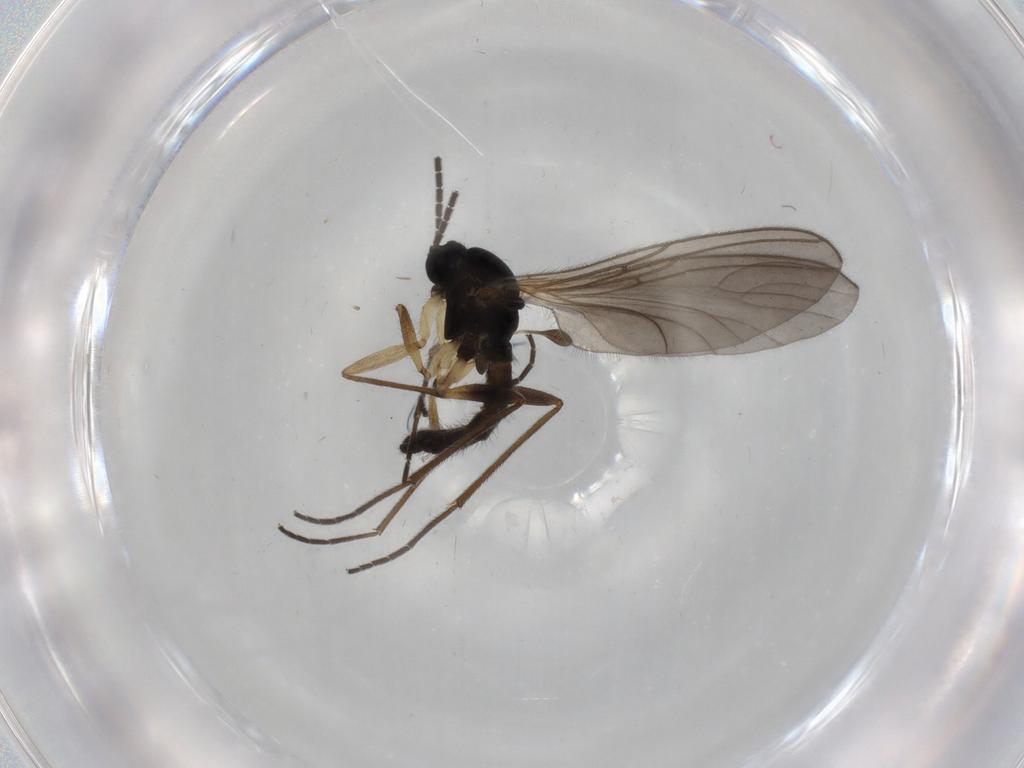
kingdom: Animalia
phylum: Arthropoda
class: Insecta
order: Diptera
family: Sciaridae
